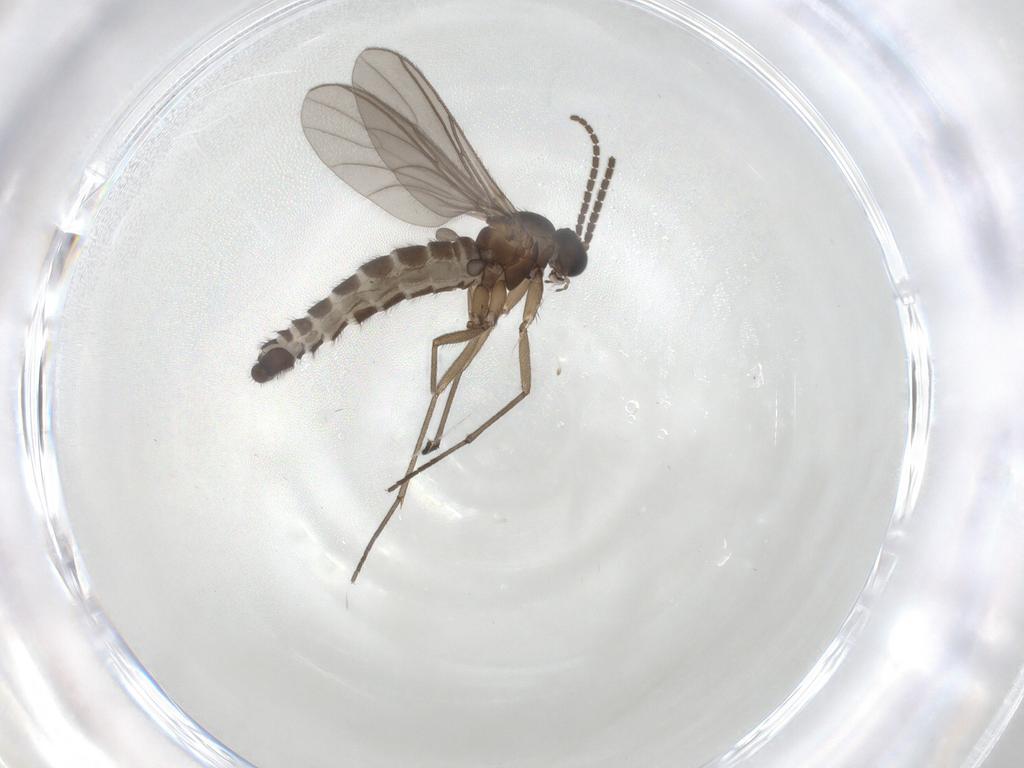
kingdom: Animalia
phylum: Arthropoda
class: Insecta
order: Diptera
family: Sciaridae
